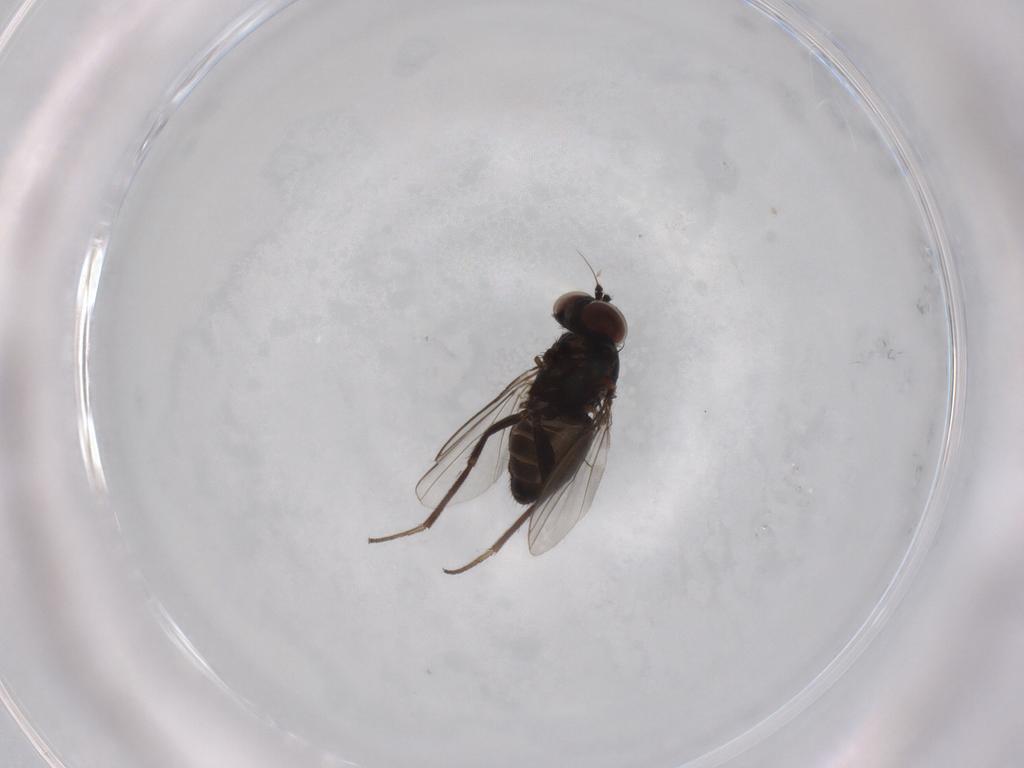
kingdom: Animalia
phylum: Arthropoda
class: Insecta
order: Diptera
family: Dolichopodidae
